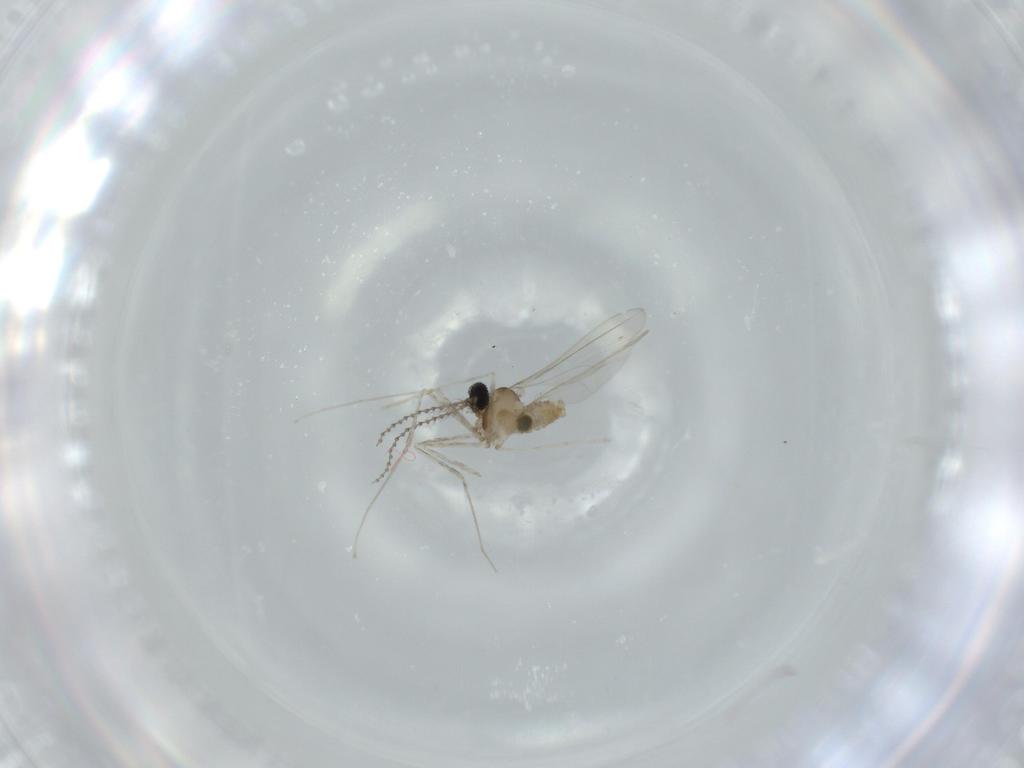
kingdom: Animalia
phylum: Arthropoda
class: Insecta
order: Diptera
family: Cecidomyiidae
